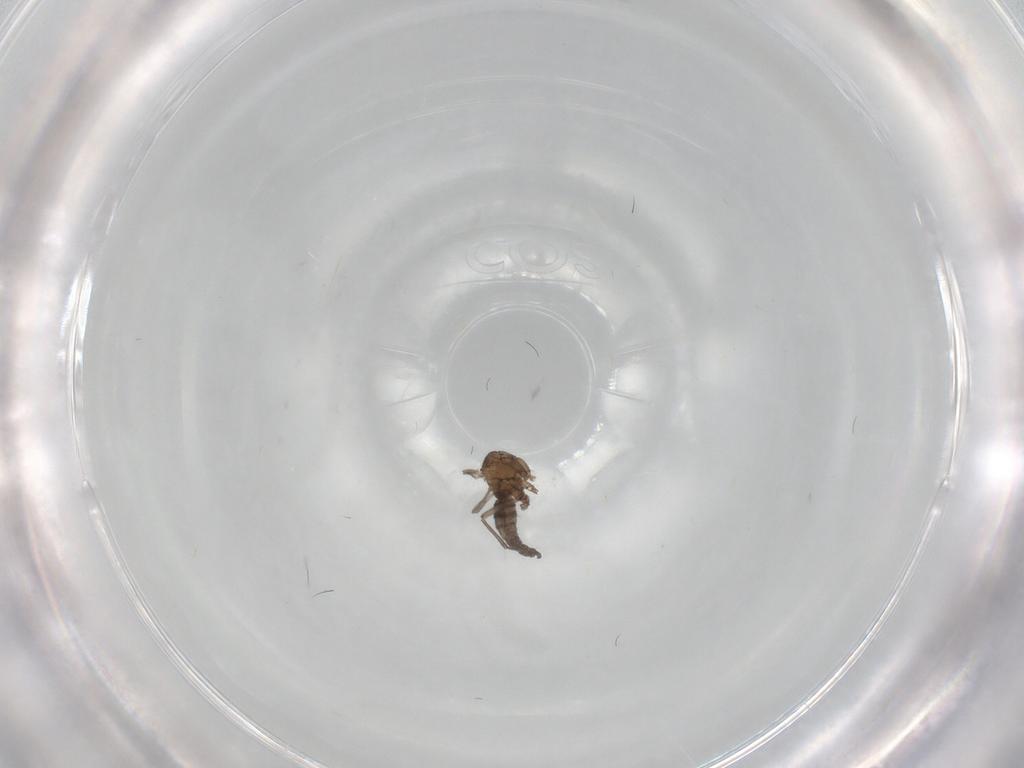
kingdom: Animalia
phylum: Arthropoda
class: Insecta
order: Diptera
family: Sciaridae
